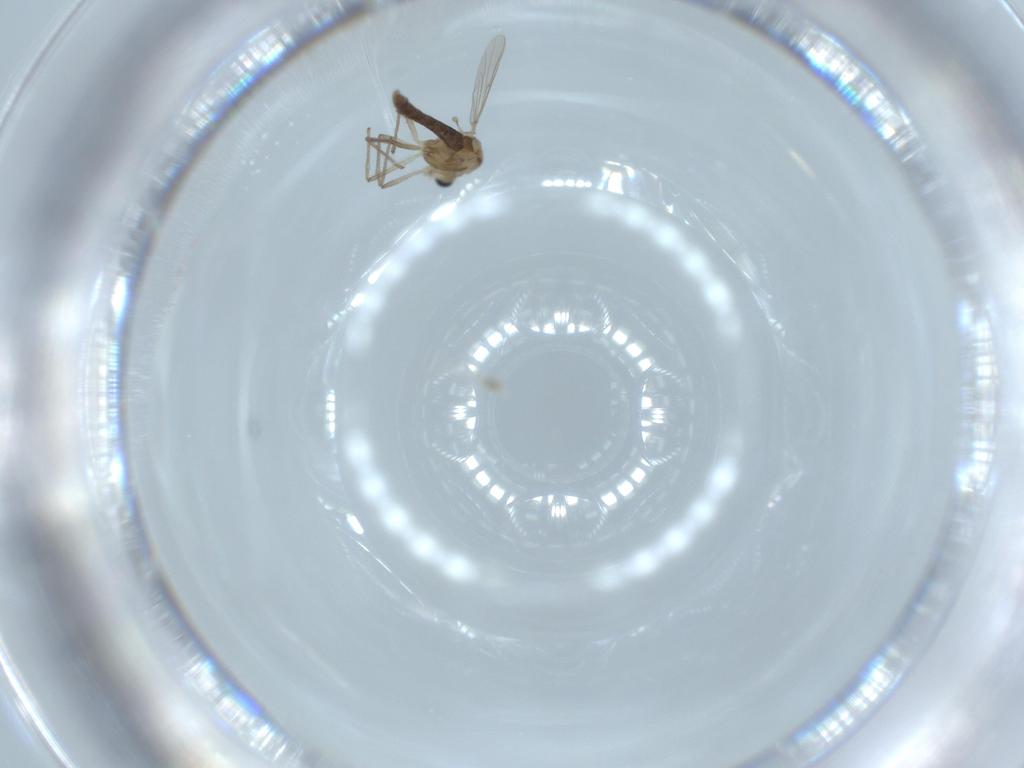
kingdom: Animalia
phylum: Arthropoda
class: Insecta
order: Diptera
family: Chironomidae
